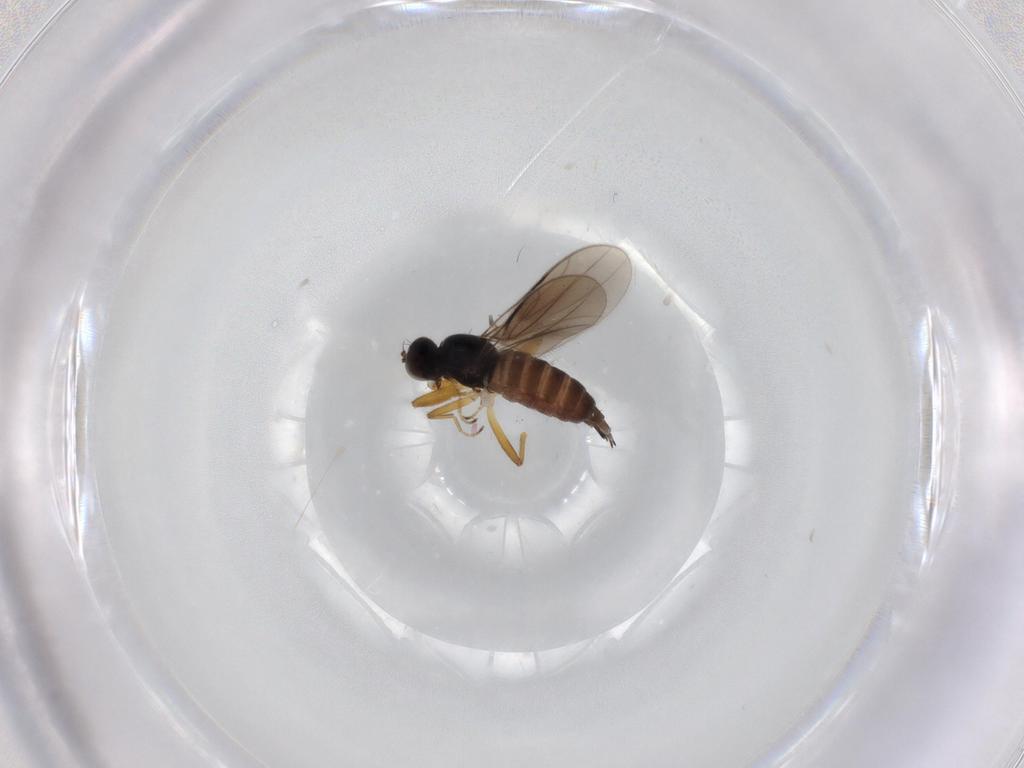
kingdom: Animalia
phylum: Arthropoda
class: Insecta
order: Diptera
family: Hybotidae
